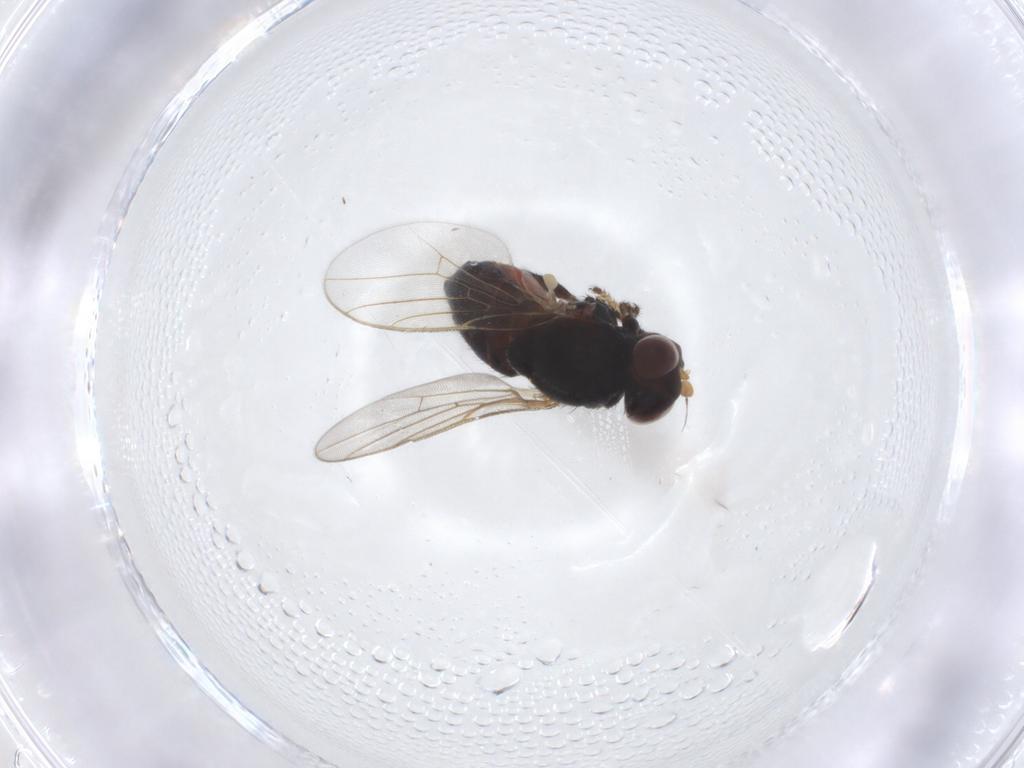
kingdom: Animalia
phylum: Arthropoda
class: Insecta
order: Diptera
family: Chloropidae
